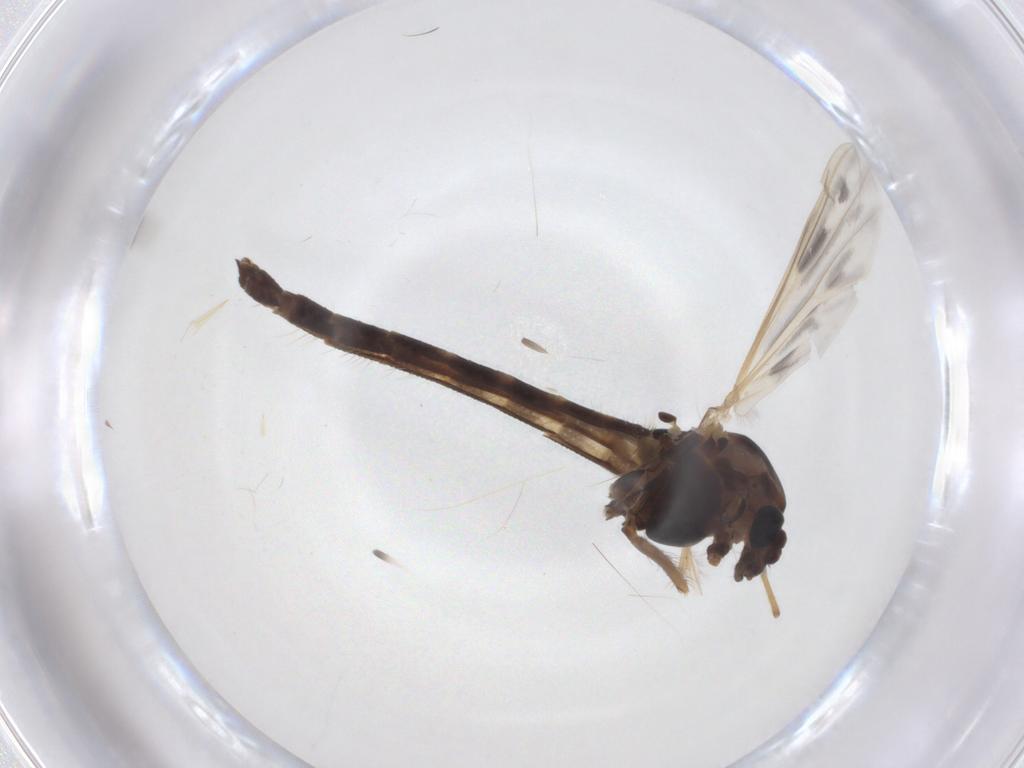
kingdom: Animalia
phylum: Arthropoda
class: Insecta
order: Diptera
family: Chironomidae
